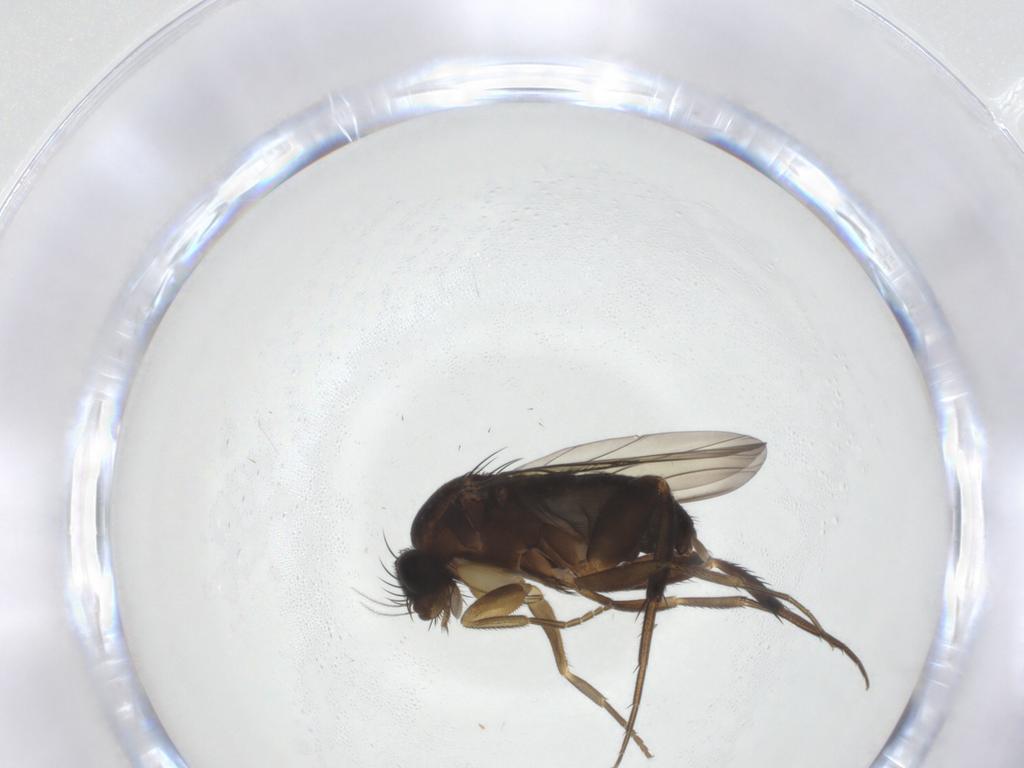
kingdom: Animalia
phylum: Arthropoda
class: Insecta
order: Diptera
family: Phoridae
